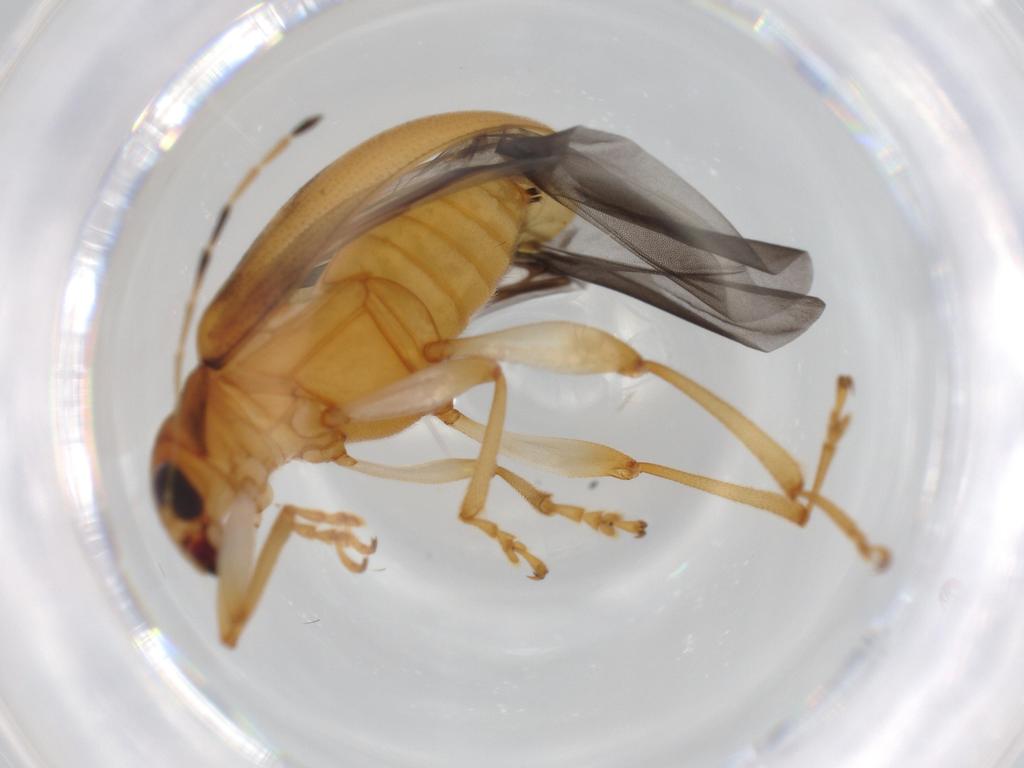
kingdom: Animalia
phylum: Arthropoda
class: Insecta
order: Coleoptera
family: Chrysomelidae
